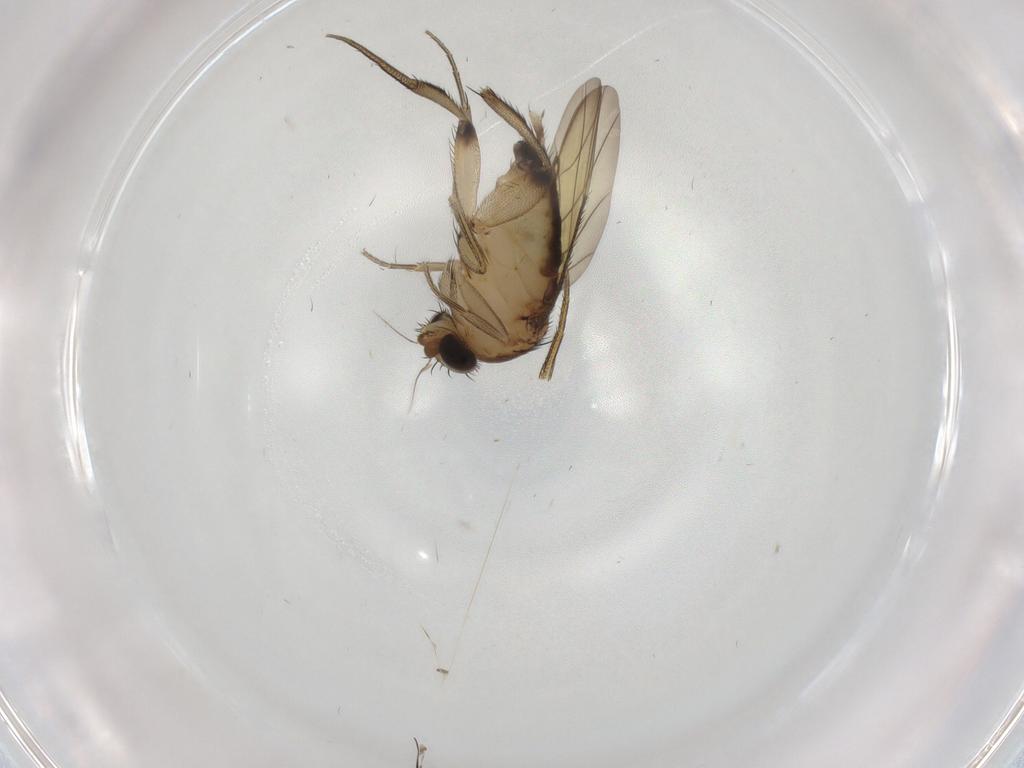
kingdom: Animalia
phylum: Arthropoda
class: Insecta
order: Diptera
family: Phoridae
